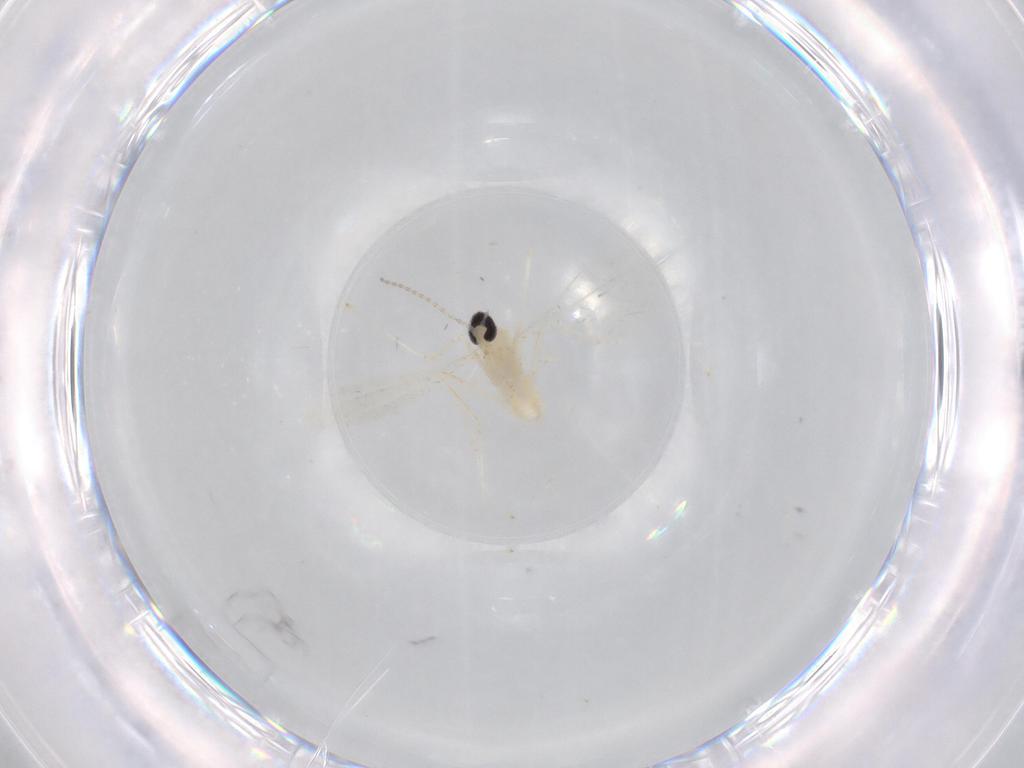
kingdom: Animalia
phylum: Arthropoda
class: Insecta
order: Diptera
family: Cecidomyiidae
